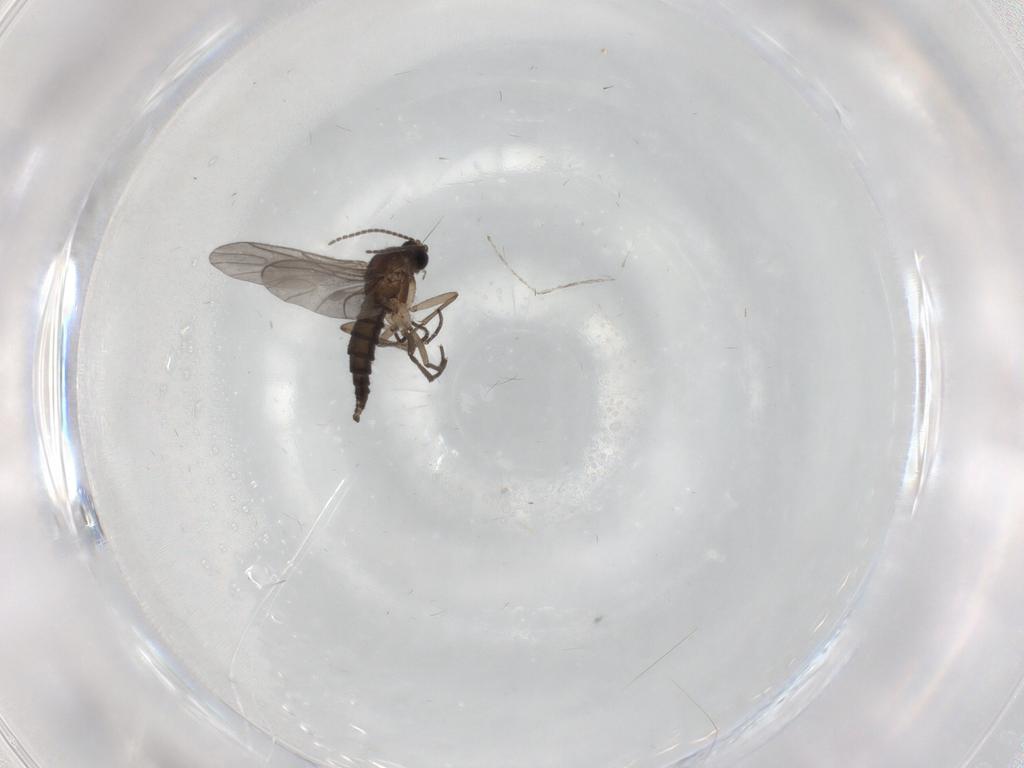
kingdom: Animalia
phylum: Arthropoda
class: Insecta
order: Diptera
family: Sciaridae
